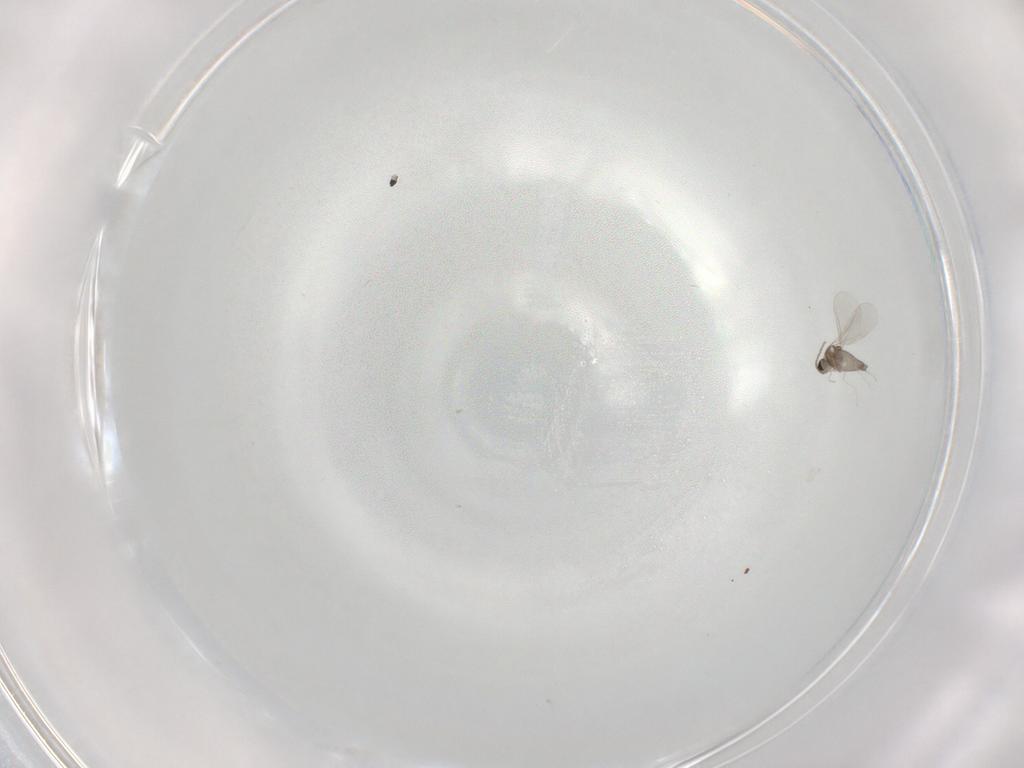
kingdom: Animalia
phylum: Arthropoda
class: Insecta
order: Diptera
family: Cecidomyiidae
